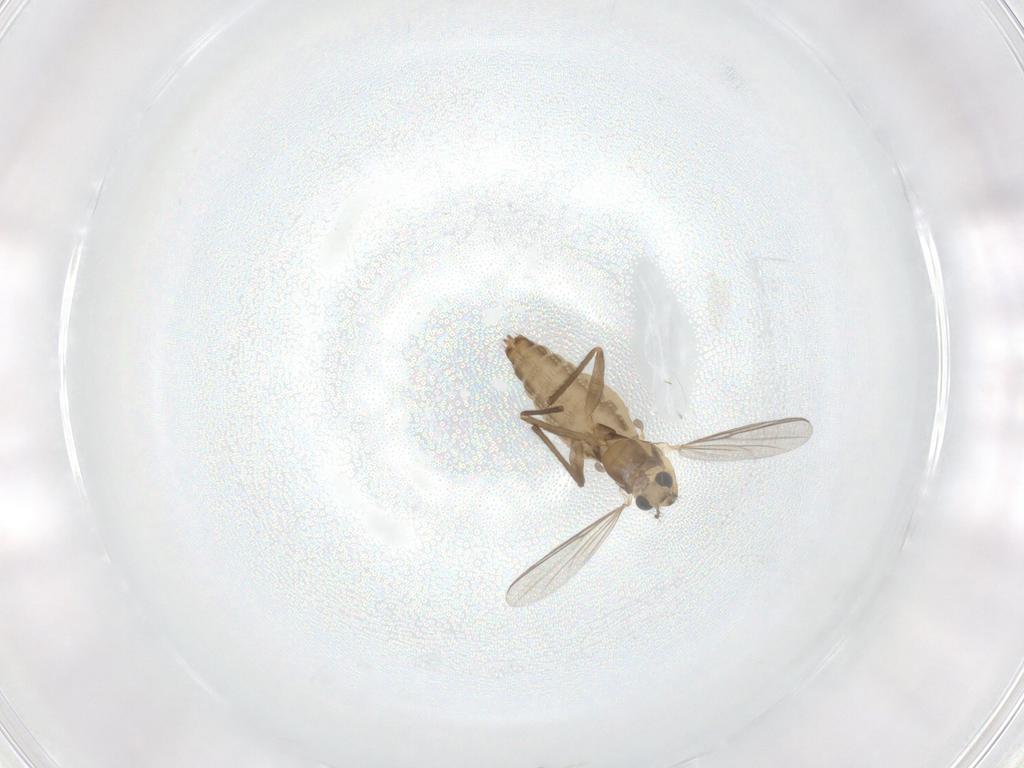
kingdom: Animalia
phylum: Arthropoda
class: Insecta
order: Diptera
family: Chironomidae
